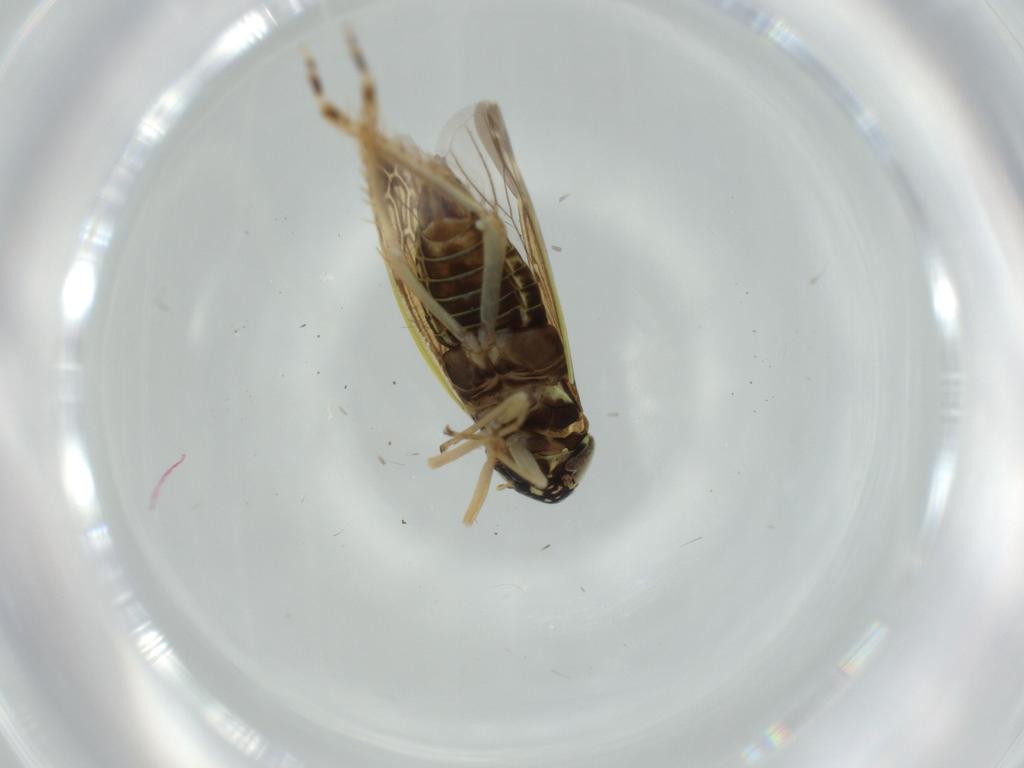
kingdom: Animalia
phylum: Arthropoda
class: Insecta
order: Hemiptera
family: Cicadellidae
